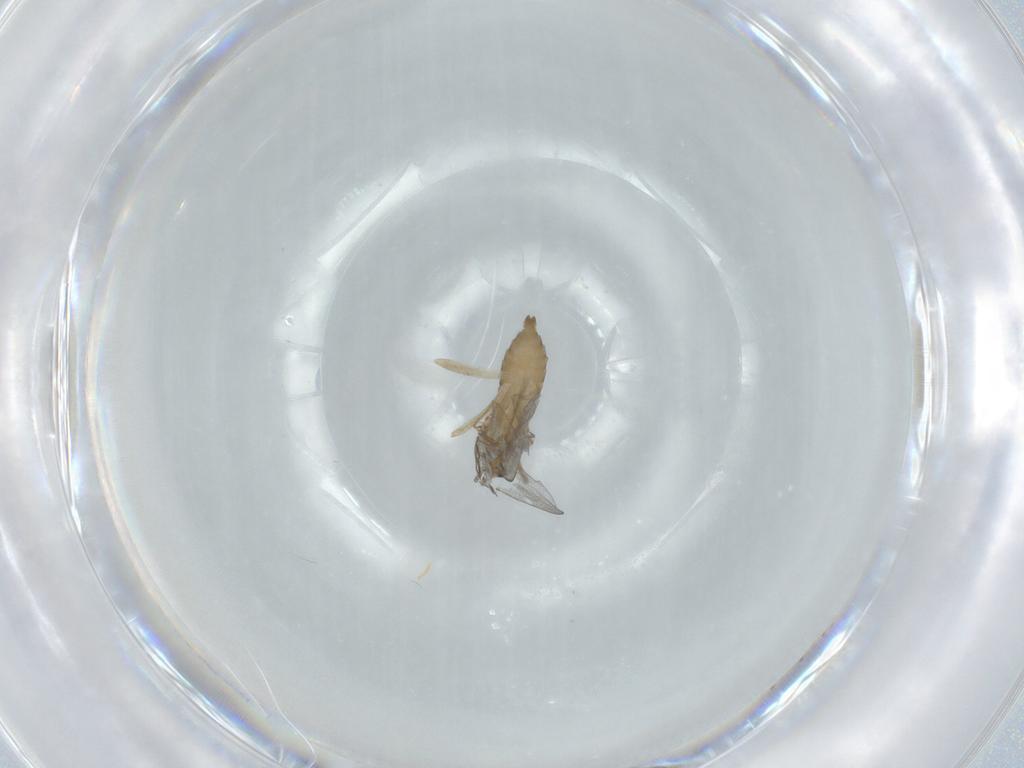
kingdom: Animalia
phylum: Arthropoda
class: Insecta
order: Diptera
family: Cecidomyiidae
